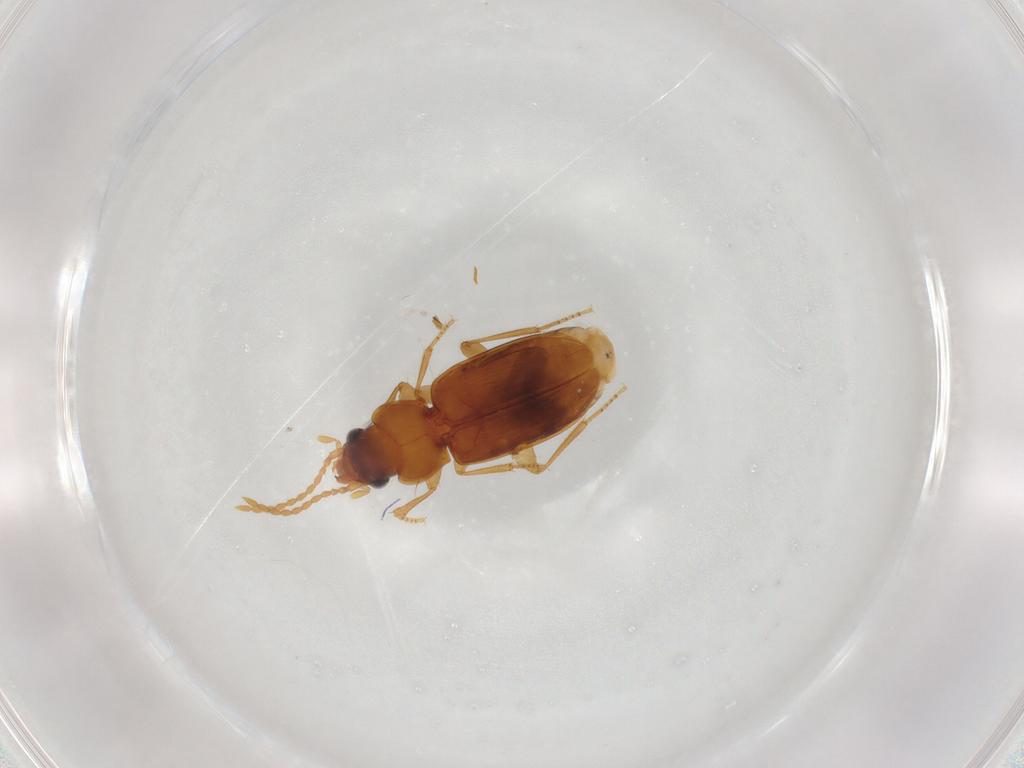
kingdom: Animalia
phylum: Arthropoda
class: Insecta
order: Coleoptera
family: Carabidae
